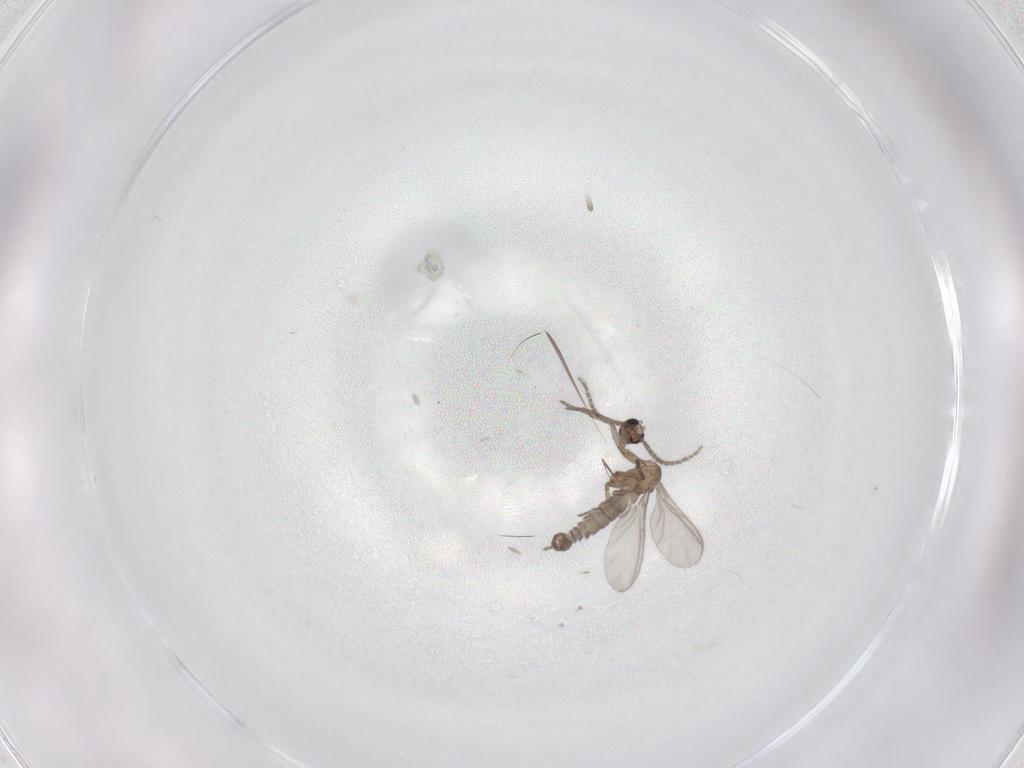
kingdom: Animalia
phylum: Arthropoda
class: Insecta
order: Diptera
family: Sciaridae
